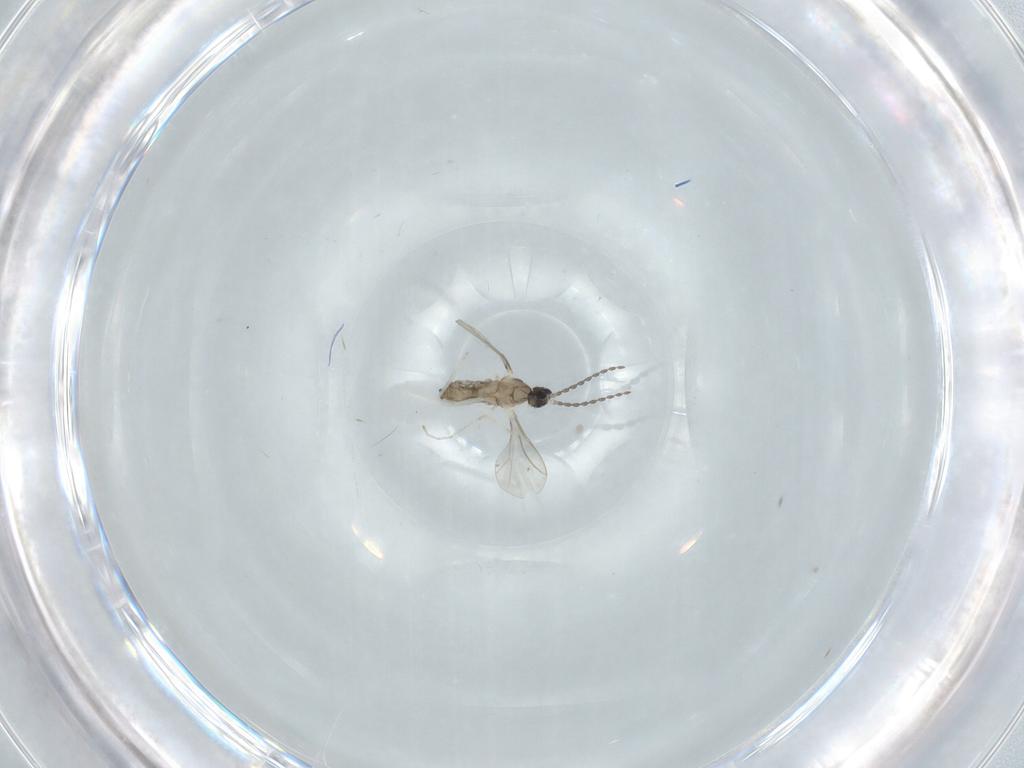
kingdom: Animalia
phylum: Arthropoda
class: Insecta
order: Diptera
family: Cecidomyiidae
